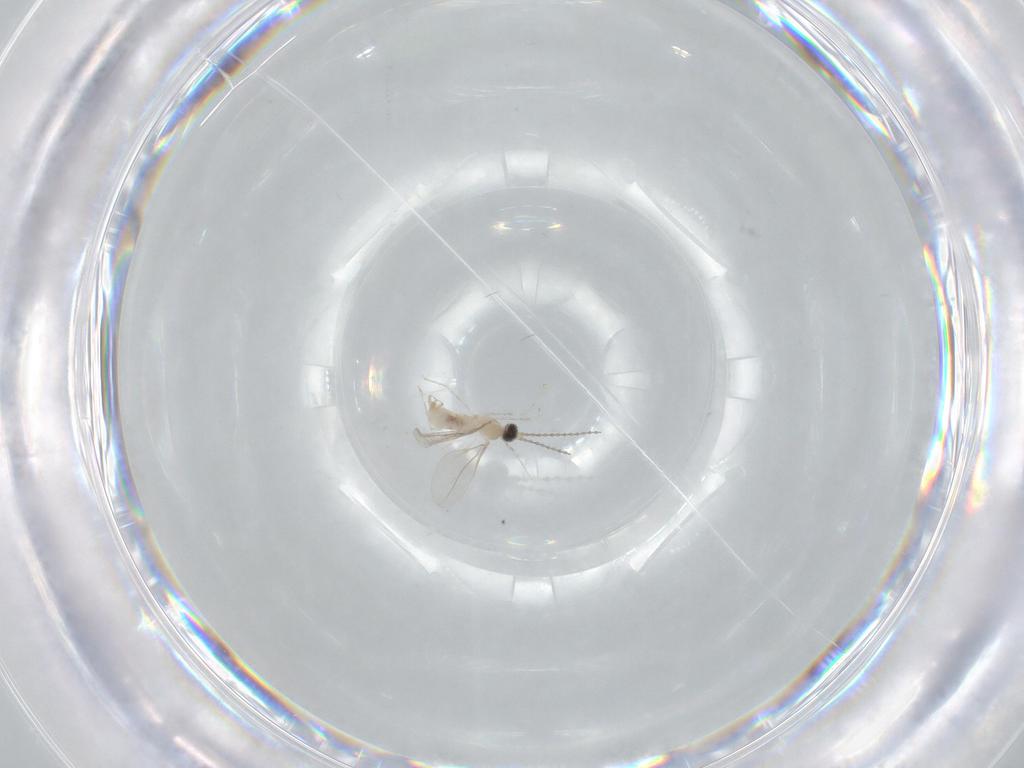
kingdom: Animalia
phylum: Arthropoda
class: Insecta
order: Diptera
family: Cecidomyiidae
